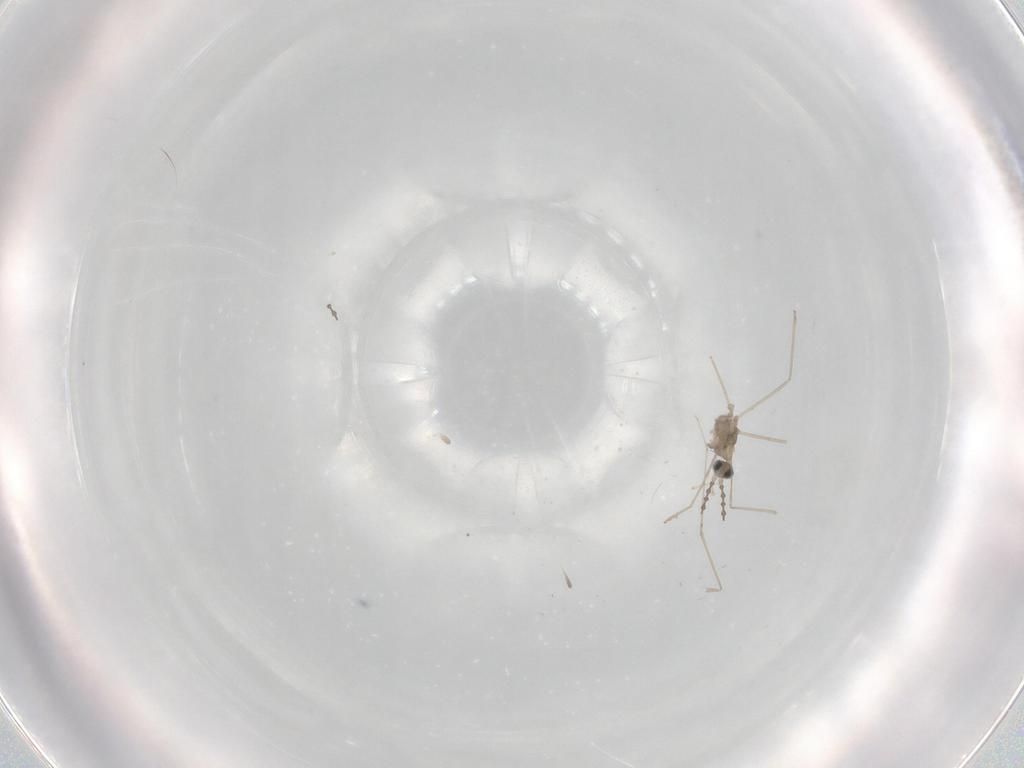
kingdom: Animalia
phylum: Arthropoda
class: Insecta
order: Diptera
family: Cecidomyiidae
